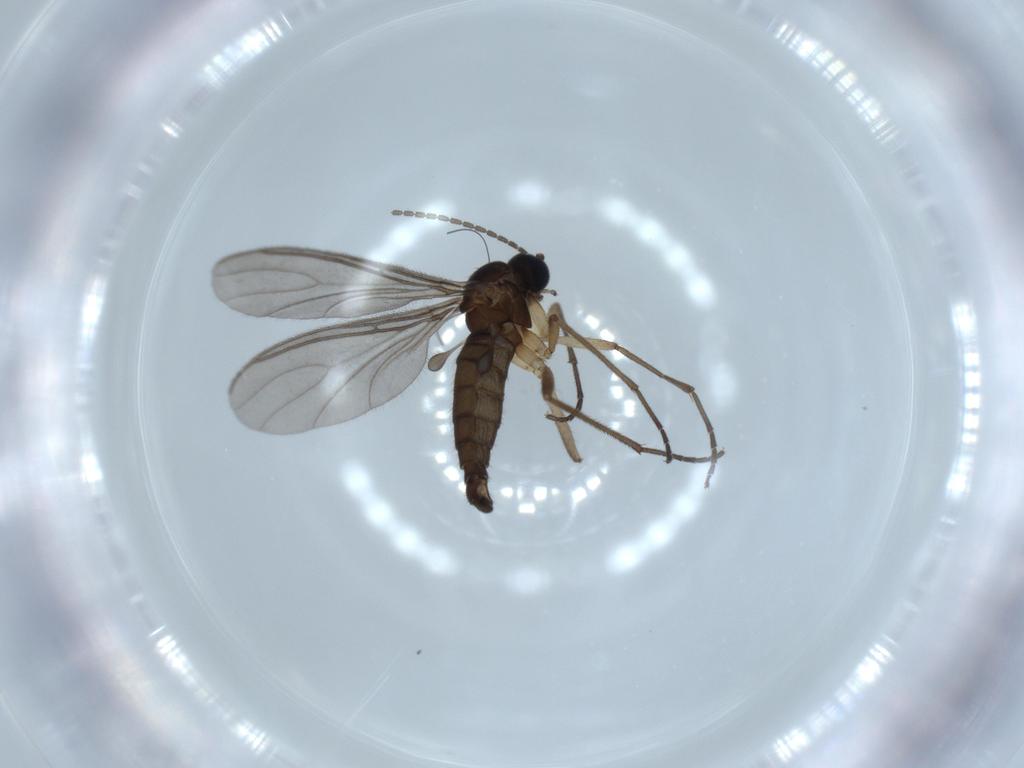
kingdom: Animalia
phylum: Arthropoda
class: Insecta
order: Diptera
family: Sciaridae
